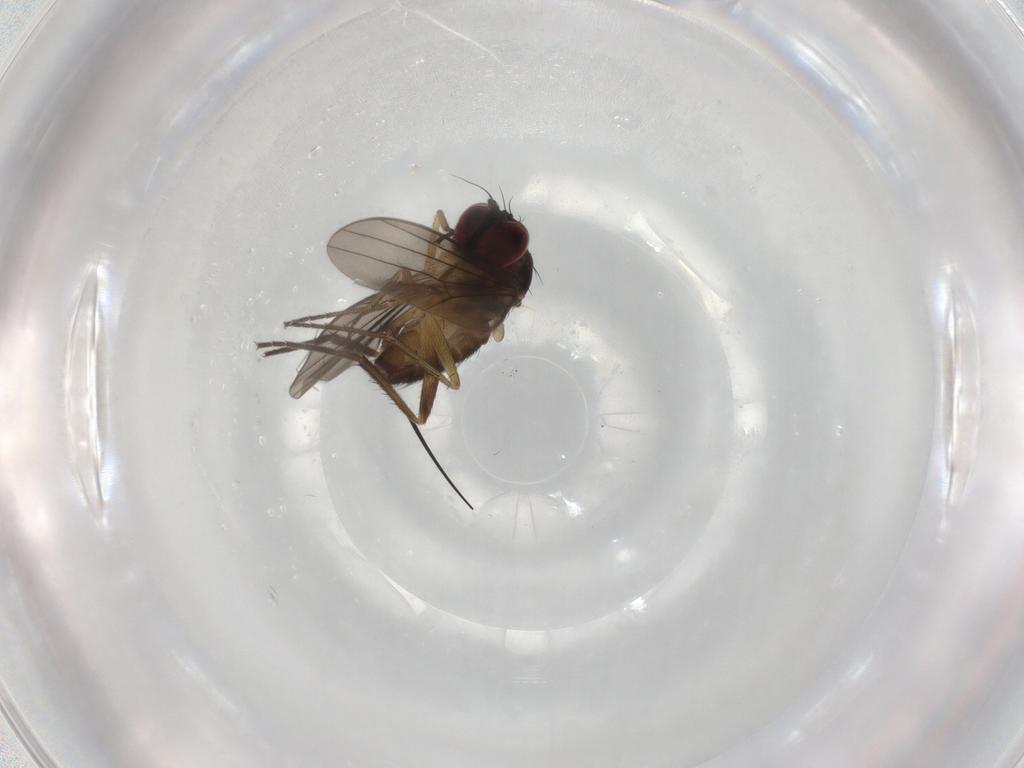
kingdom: Animalia
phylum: Arthropoda
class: Insecta
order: Diptera
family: Dolichopodidae
